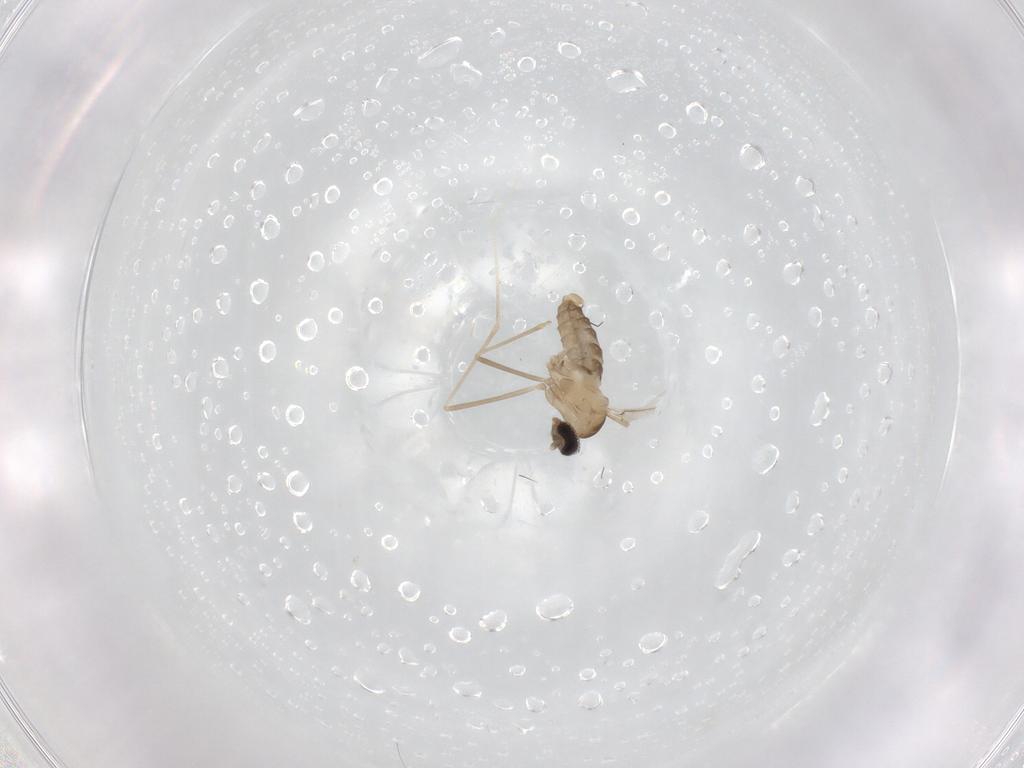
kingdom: Animalia
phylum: Arthropoda
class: Insecta
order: Diptera
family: Chironomidae
